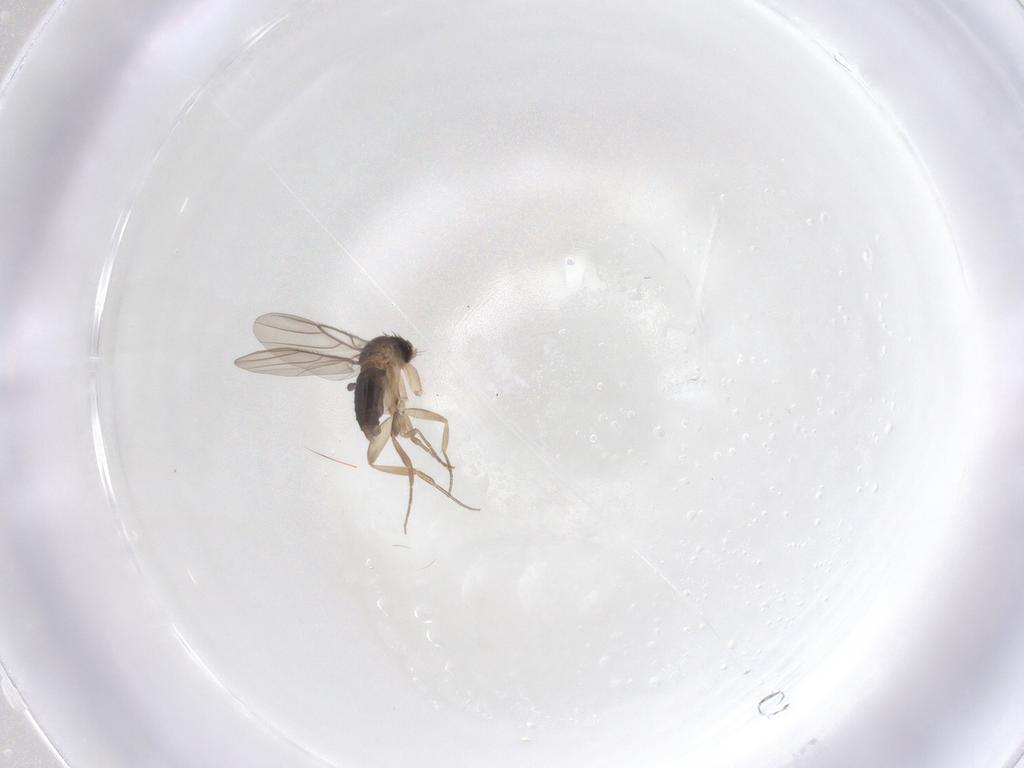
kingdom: Animalia
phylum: Arthropoda
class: Insecta
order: Diptera
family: Phoridae
